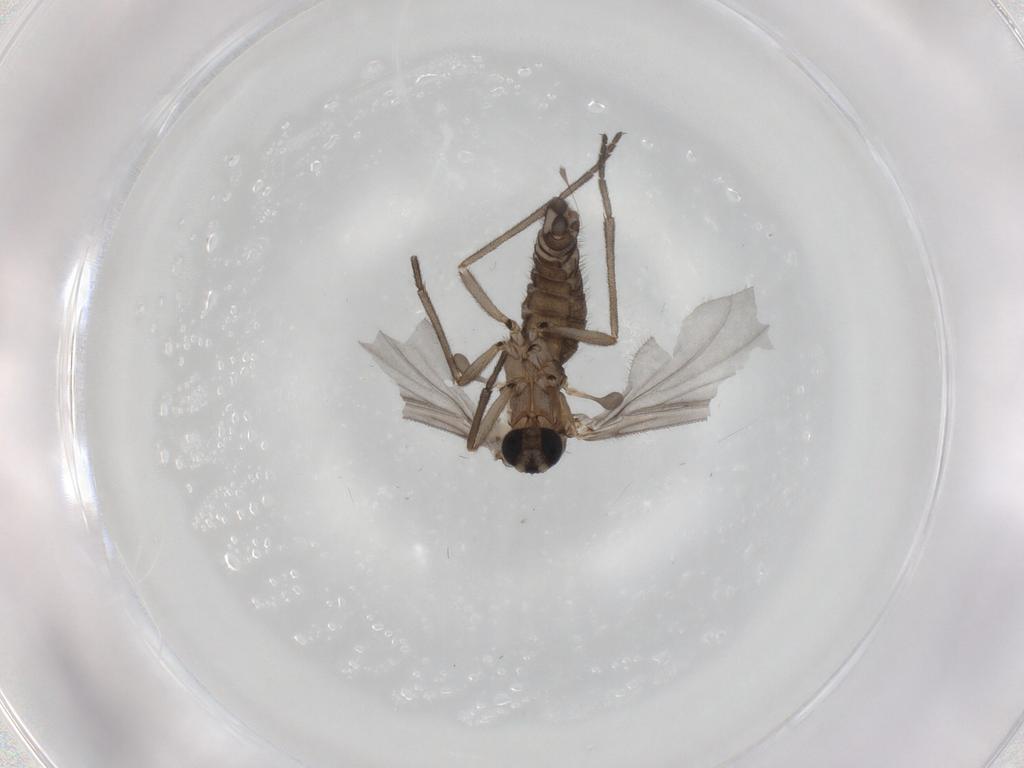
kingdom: Animalia
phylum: Arthropoda
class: Insecta
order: Diptera
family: Sciaridae
